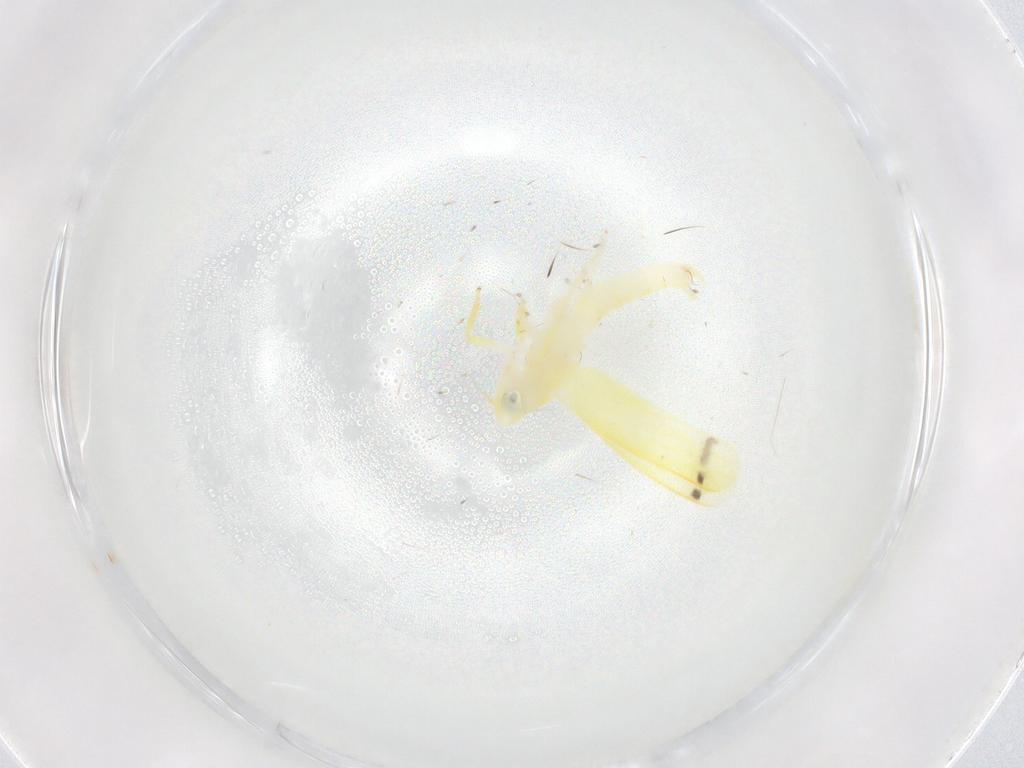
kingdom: Animalia
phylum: Arthropoda
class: Insecta
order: Hemiptera
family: Cicadellidae
